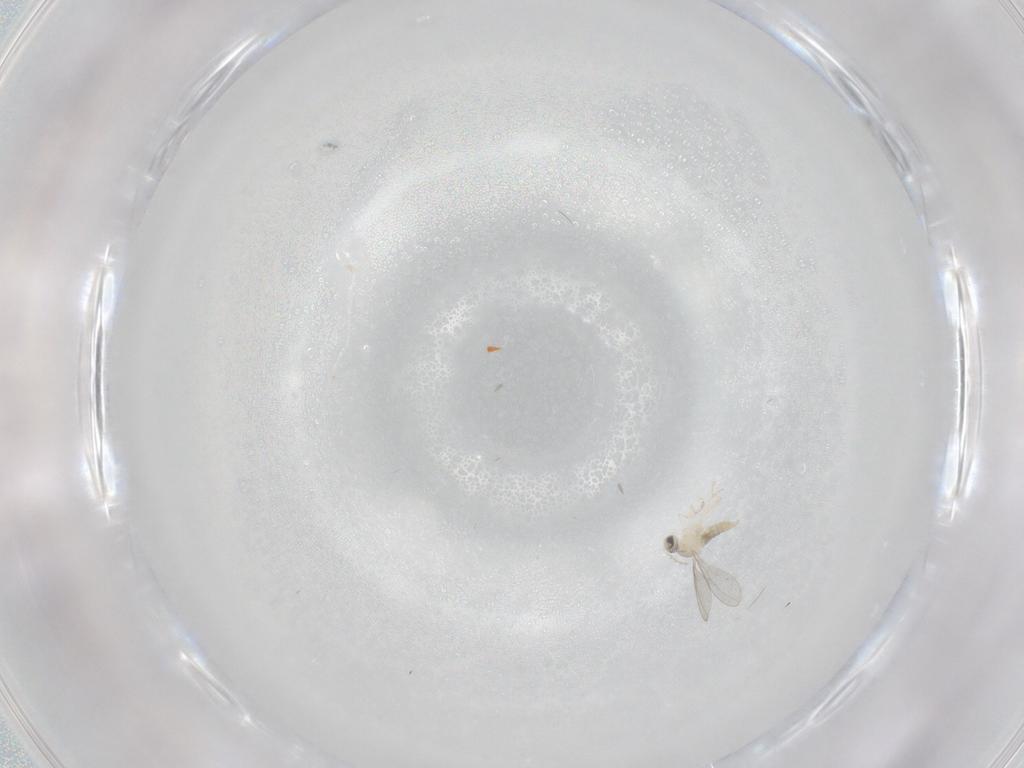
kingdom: Animalia
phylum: Arthropoda
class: Insecta
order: Diptera
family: Cecidomyiidae
